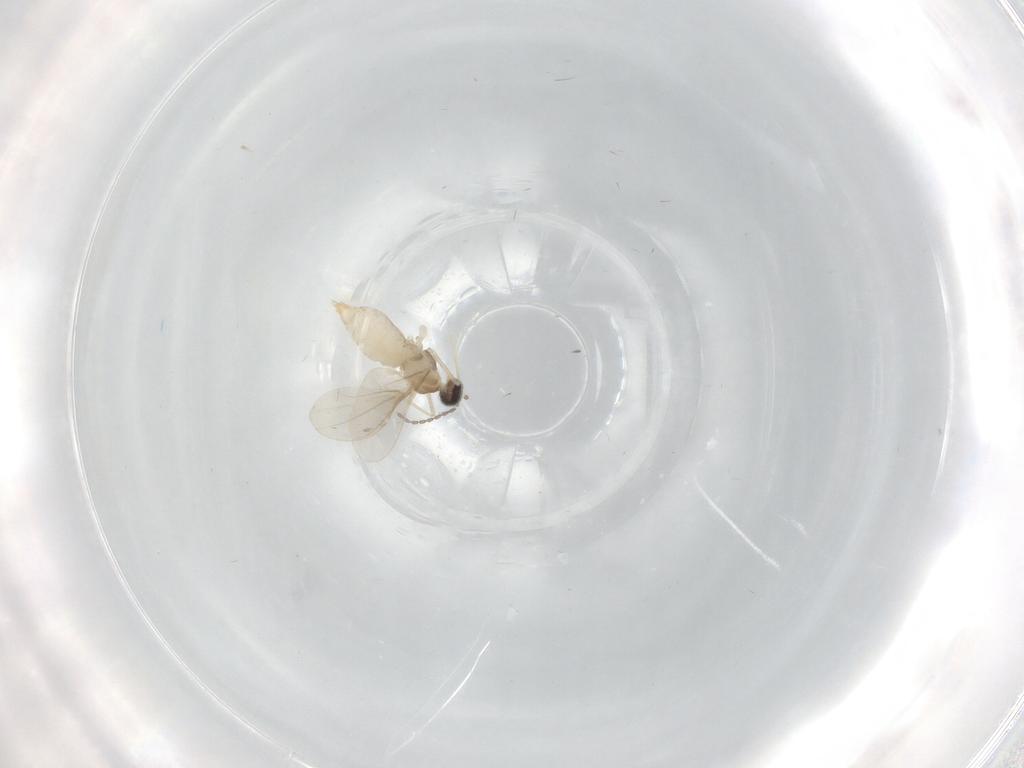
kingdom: Animalia
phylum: Arthropoda
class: Insecta
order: Diptera
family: Cecidomyiidae
